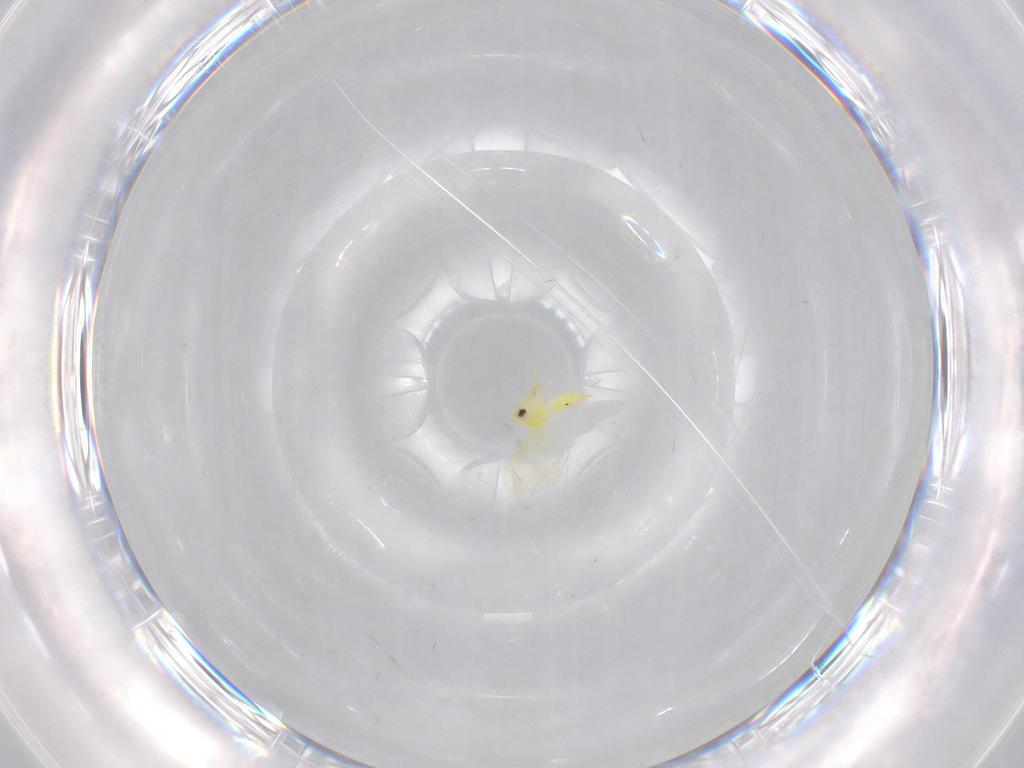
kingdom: Animalia
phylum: Arthropoda
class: Insecta
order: Hemiptera
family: Aleyrodidae
